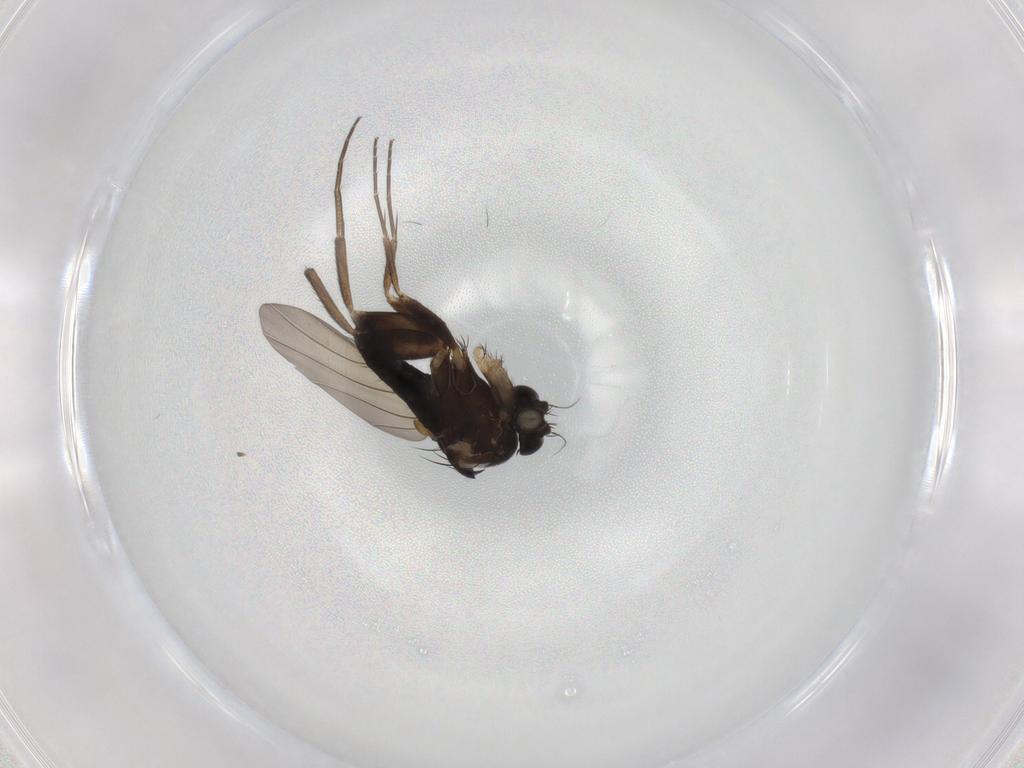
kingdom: Animalia
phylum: Arthropoda
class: Insecta
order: Diptera
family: Phoridae
